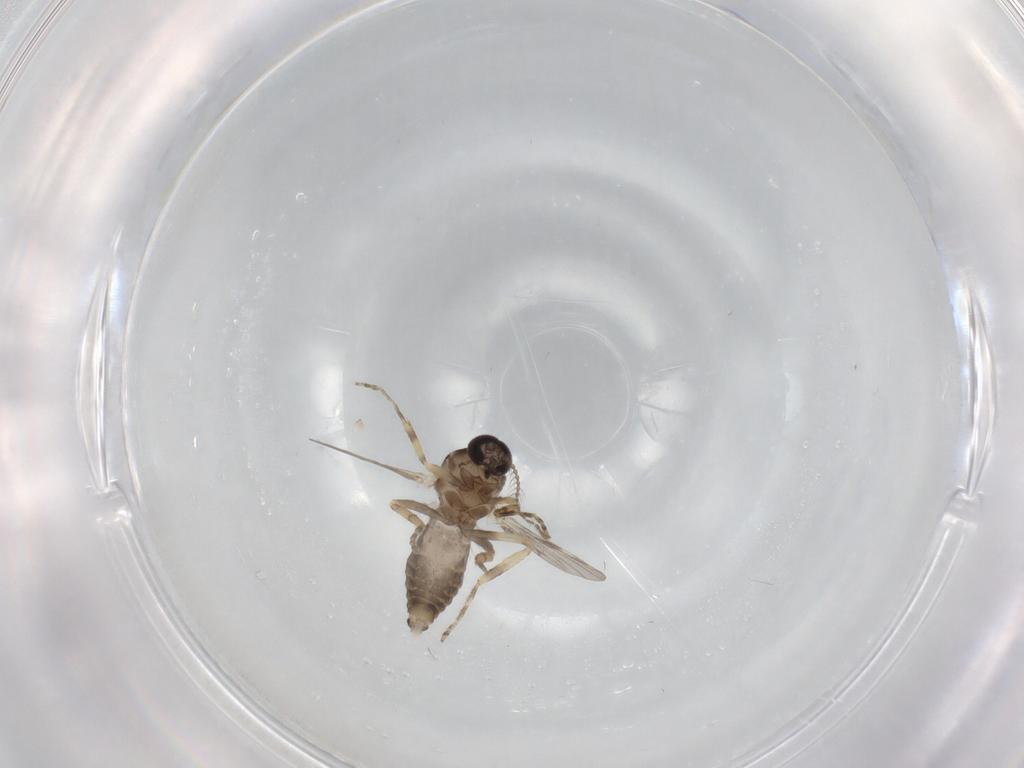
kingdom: Animalia
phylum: Arthropoda
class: Insecta
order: Diptera
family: Ceratopogonidae
